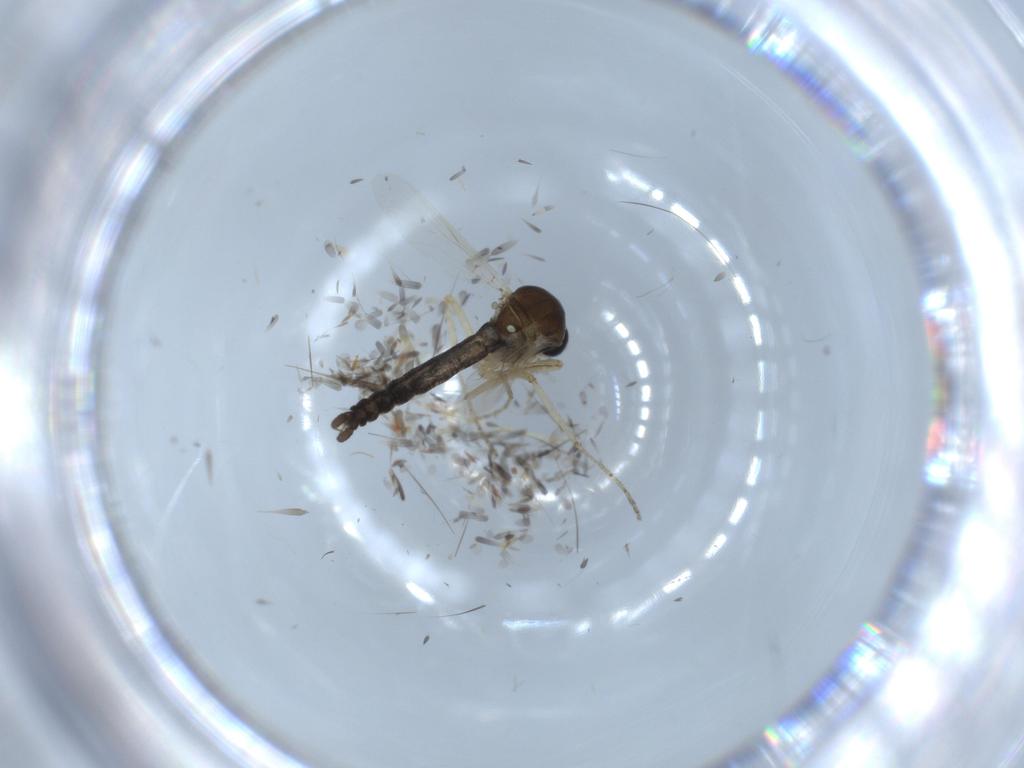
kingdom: Animalia
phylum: Arthropoda
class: Insecta
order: Diptera
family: Ceratopogonidae
